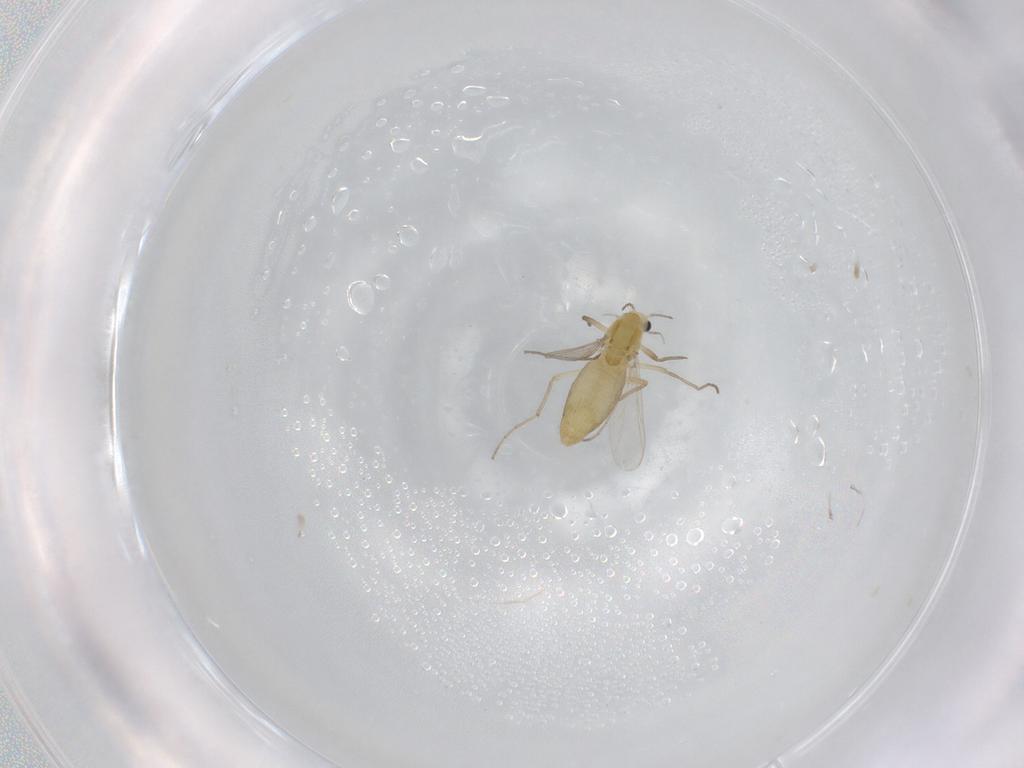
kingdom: Animalia
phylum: Arthropoda
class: Insecta
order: Diptera
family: Chironomidae
